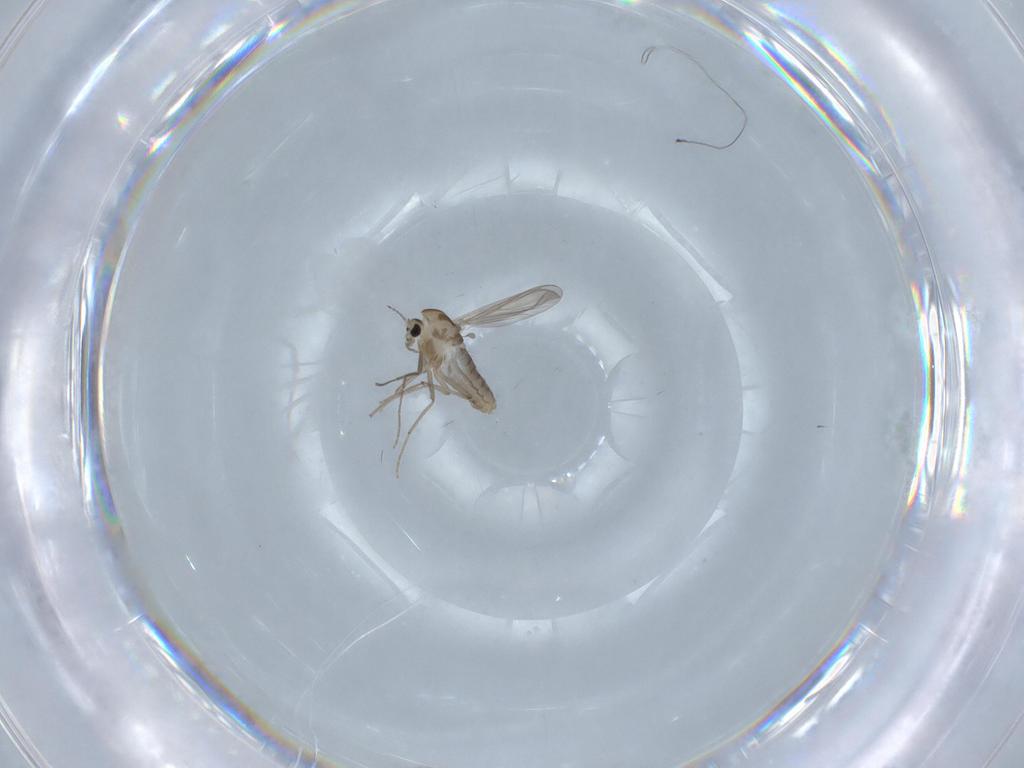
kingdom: Animalia
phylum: Arthropoda
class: Insecta
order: Diptera
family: Chironomidae
